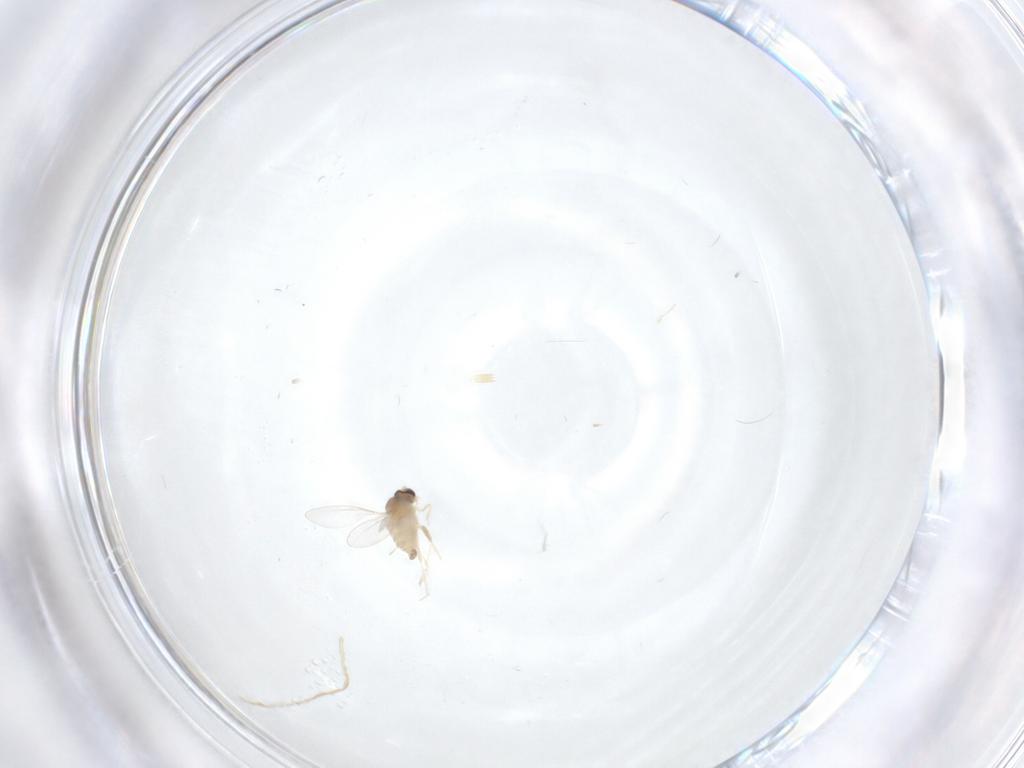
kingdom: Animalia
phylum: Arthropoda
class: Insecta
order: Diptera
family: Cecidomyiidae
